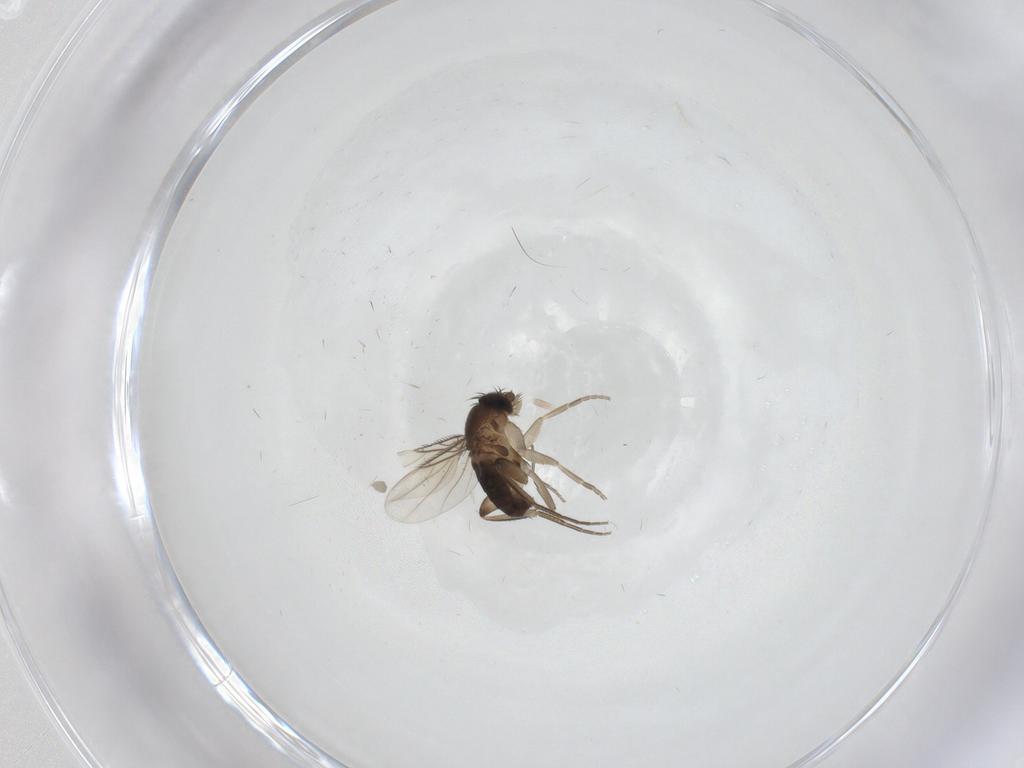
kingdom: Animalia
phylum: Arthropoda
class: Insecta
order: Diptera
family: Phoridae
